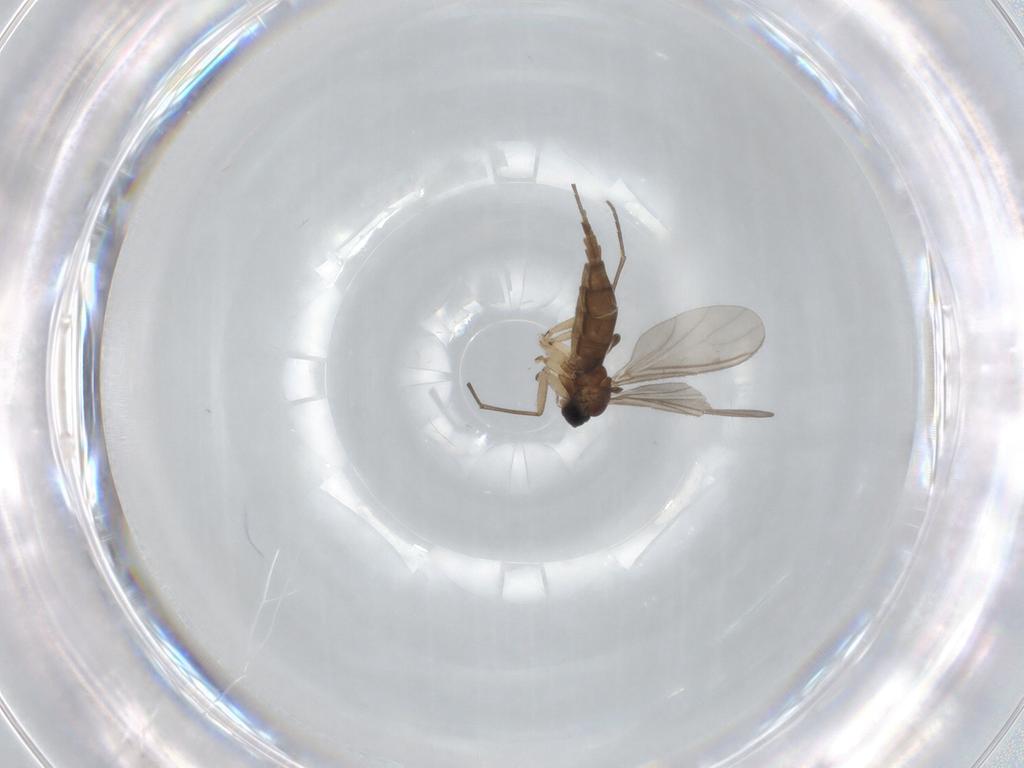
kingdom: Animalia
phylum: Arthropoda
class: Insecta
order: Diptera
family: Sciaridae
